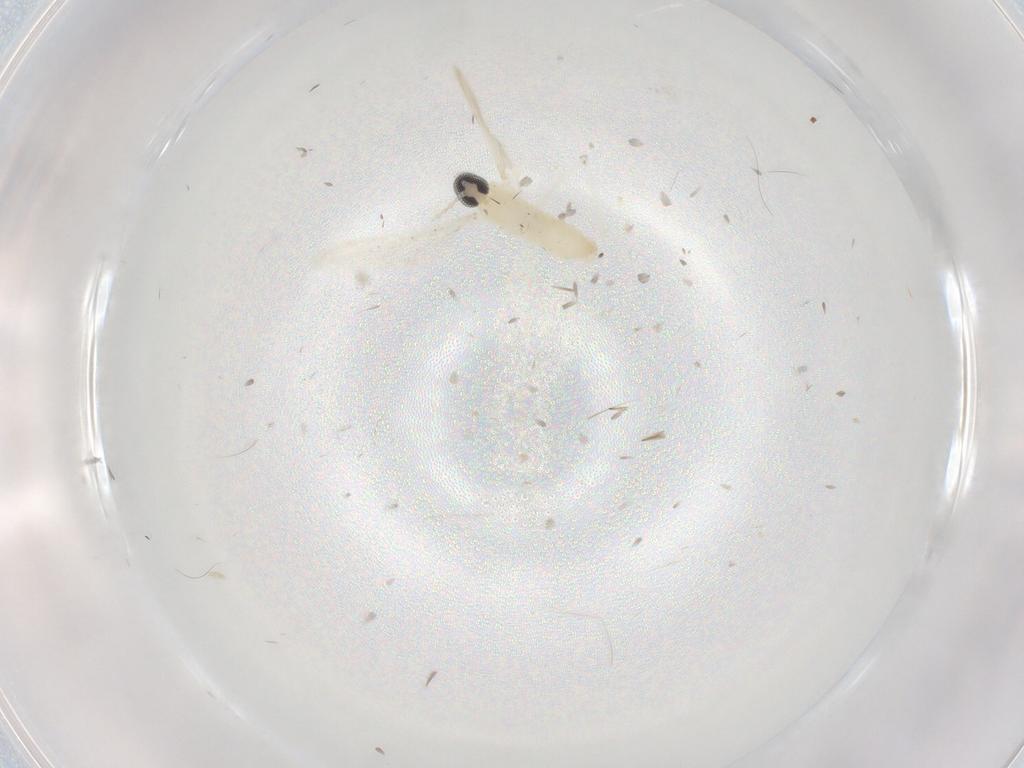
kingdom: Animalia
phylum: Arthropoda
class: Insecta
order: Diptera
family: Cecidomyiidae
